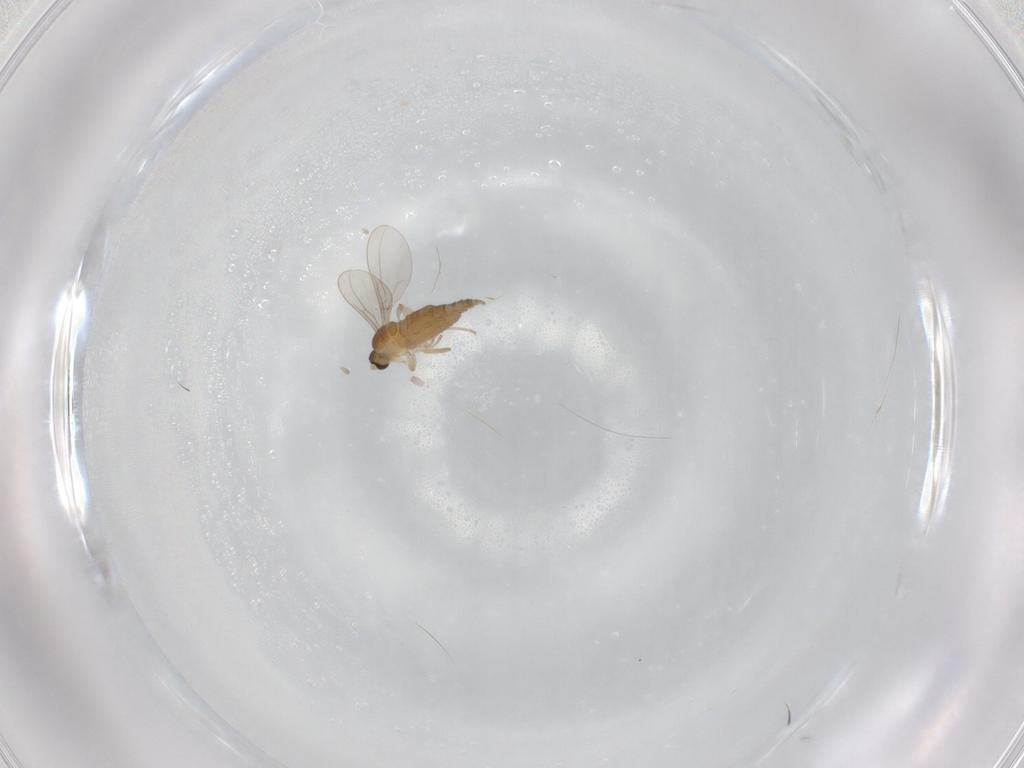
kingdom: Animalia
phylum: Arthropoda
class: Insecta
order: Diptera
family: Cecidomyiidae
